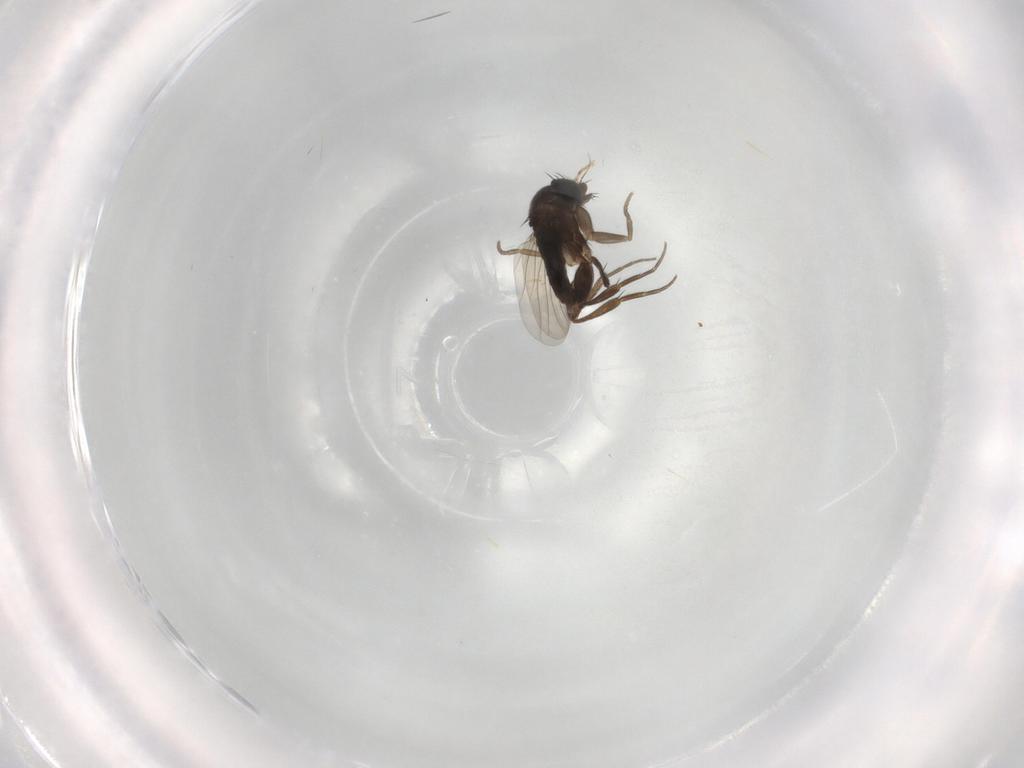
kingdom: Animalia
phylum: Arthropoda
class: Insecta
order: Diptera
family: Phoridae
